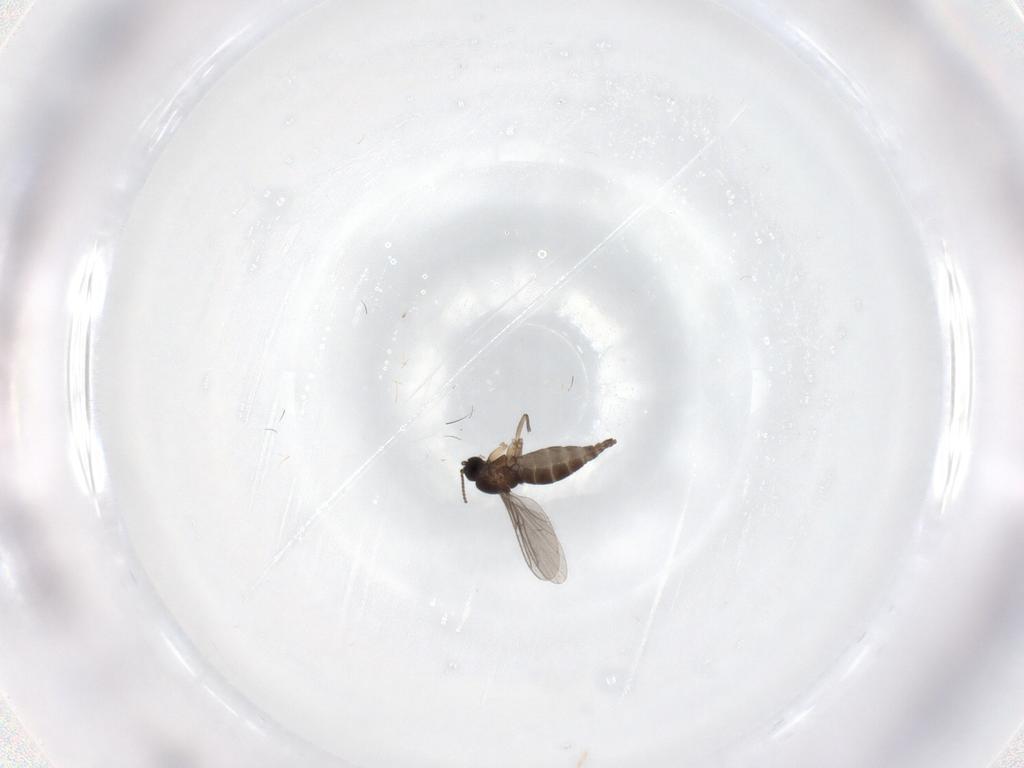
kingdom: Animalia
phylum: Arthropoda
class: Insecta
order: Diptera
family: Sciaridae
